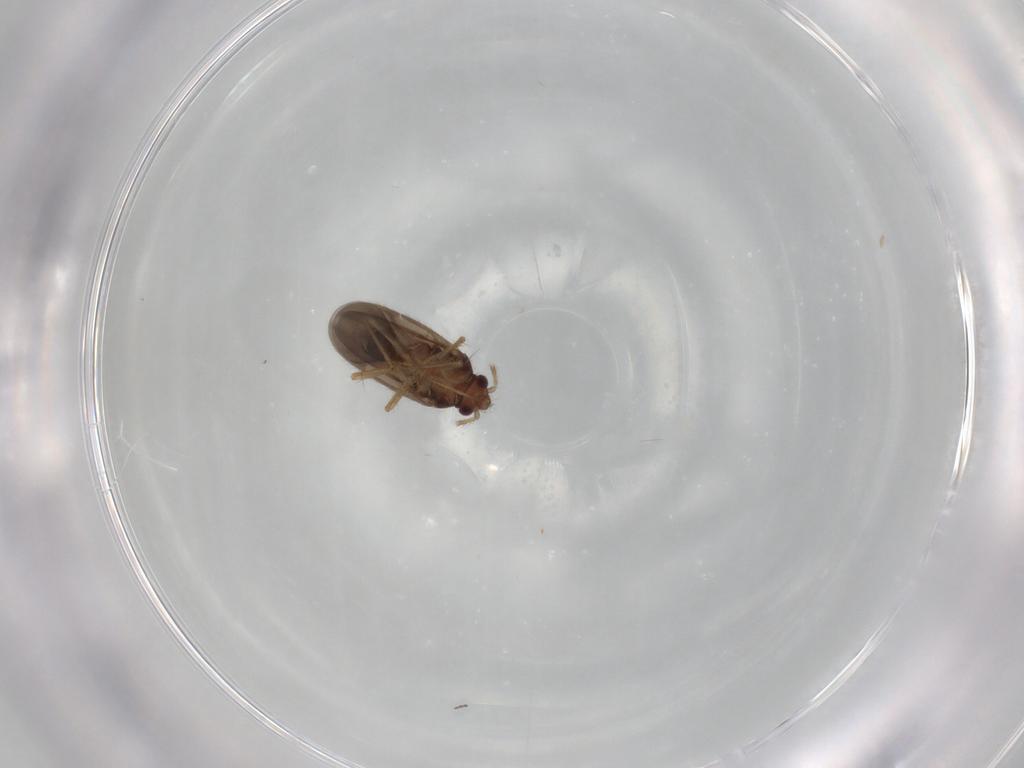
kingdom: Animalia
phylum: Arthropoda
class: Insecta
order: Hemiptera
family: Ceratocombidae
